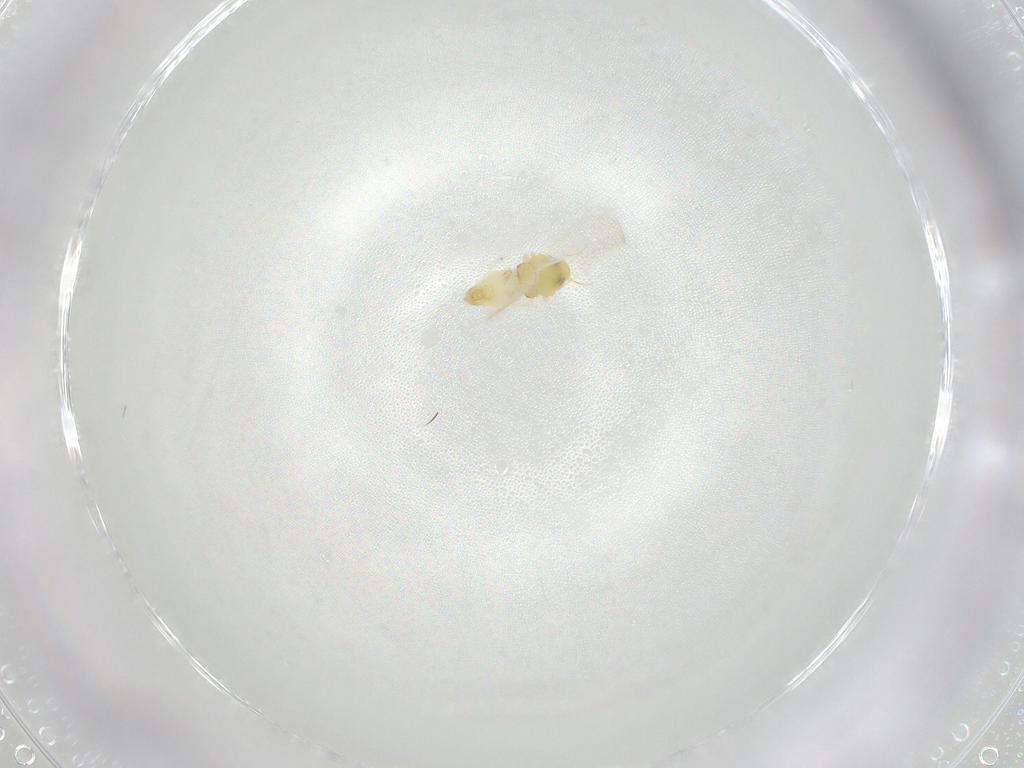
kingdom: Animalia
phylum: Arthropoda
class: Insecta
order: Hemiptera
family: Aleyrodidae
